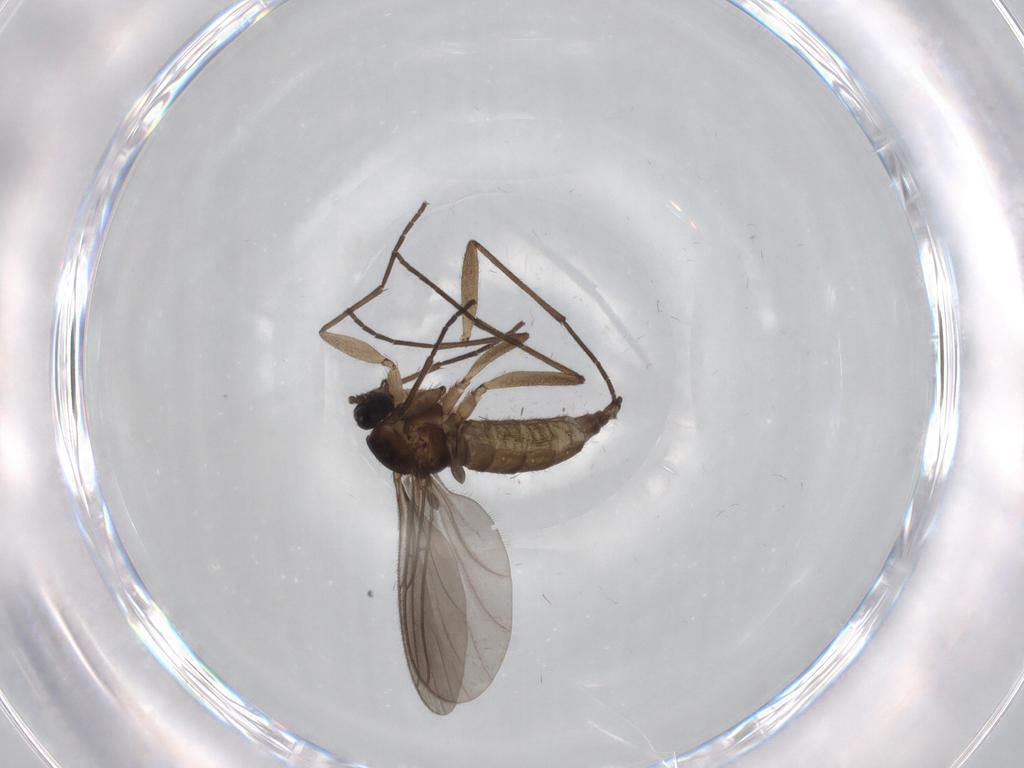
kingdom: Animalia
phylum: Arthropoda
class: Insecta
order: Diptera
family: Sciaridae
